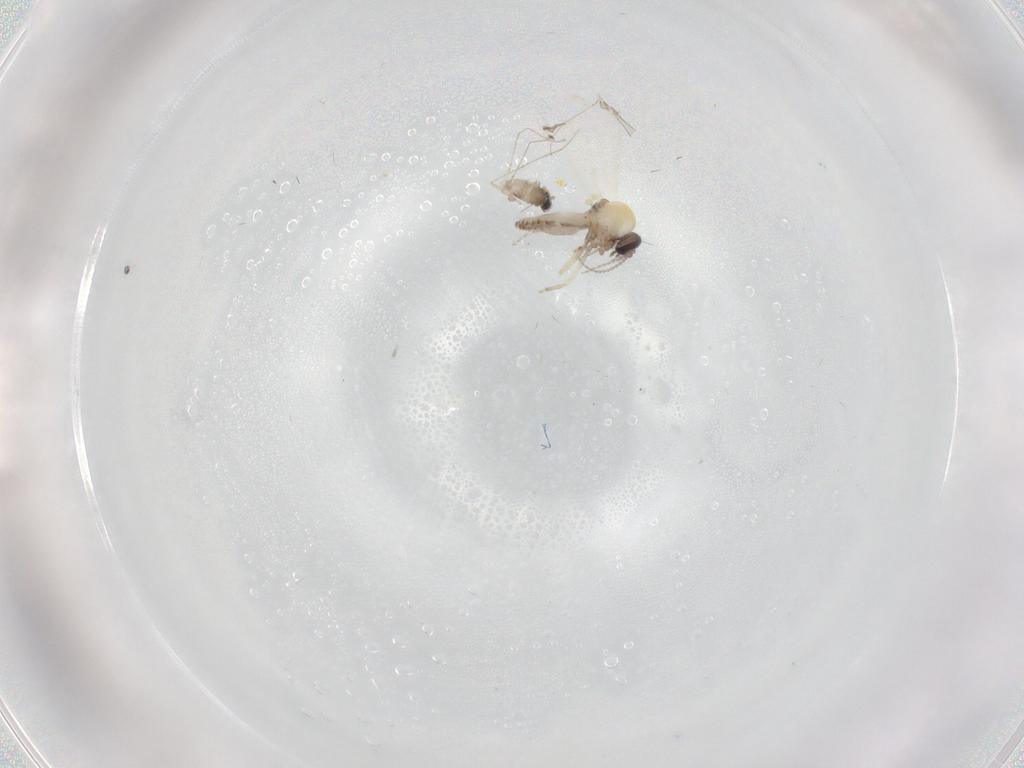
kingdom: Animalia
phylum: Arthropoda
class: Insecta
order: Diptera
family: Cecidomyiidae
